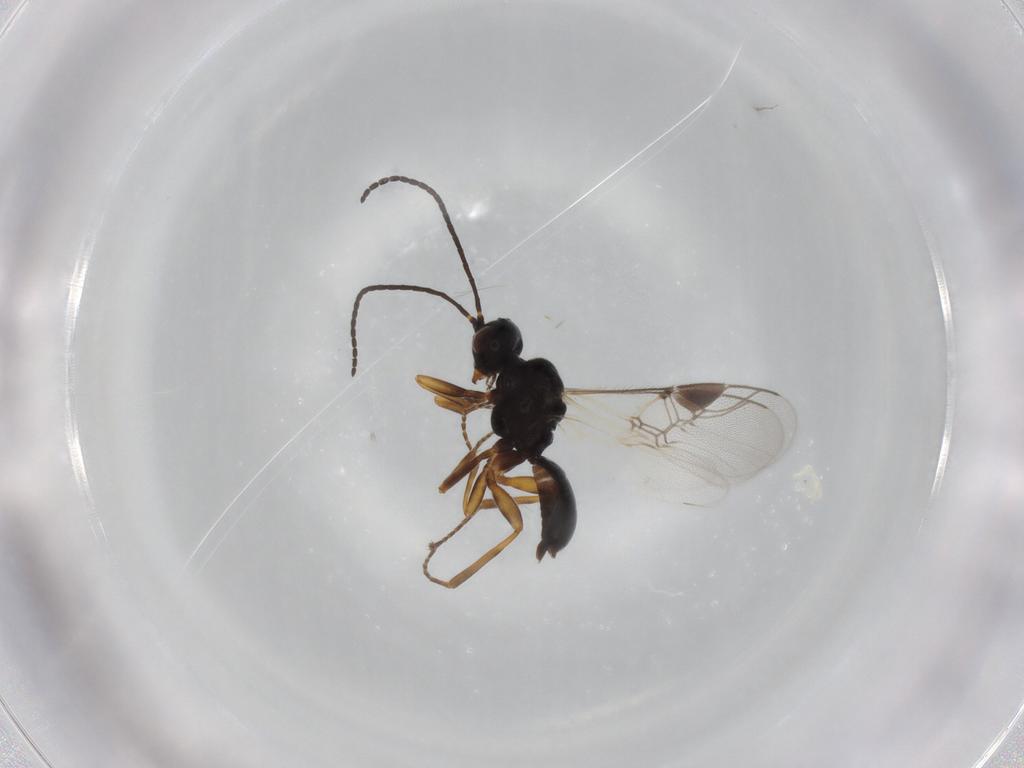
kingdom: Animalia
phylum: Arthropoda
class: Insecta
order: Hymenoptera
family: Braconidae
